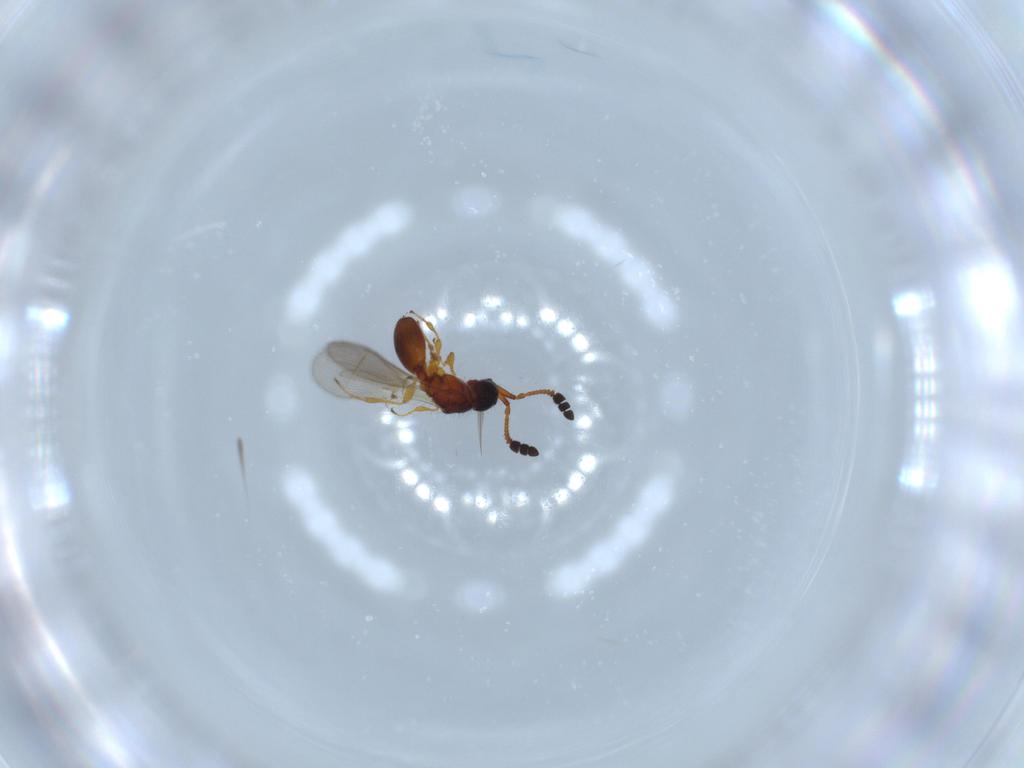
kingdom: Animalia
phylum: Arthropoda
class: Insecta
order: Hymenoptera
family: Diapriidae
